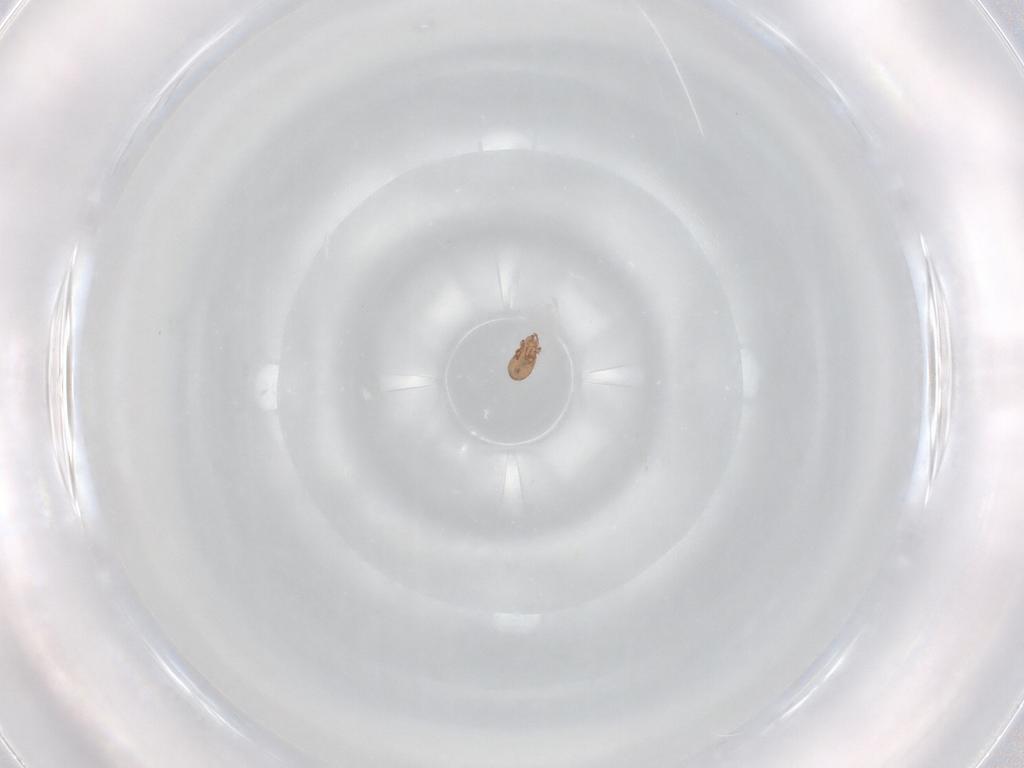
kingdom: Animalia
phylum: Arthropoda
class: Arachnida
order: Sarcoptiformes
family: Eremaeidae
